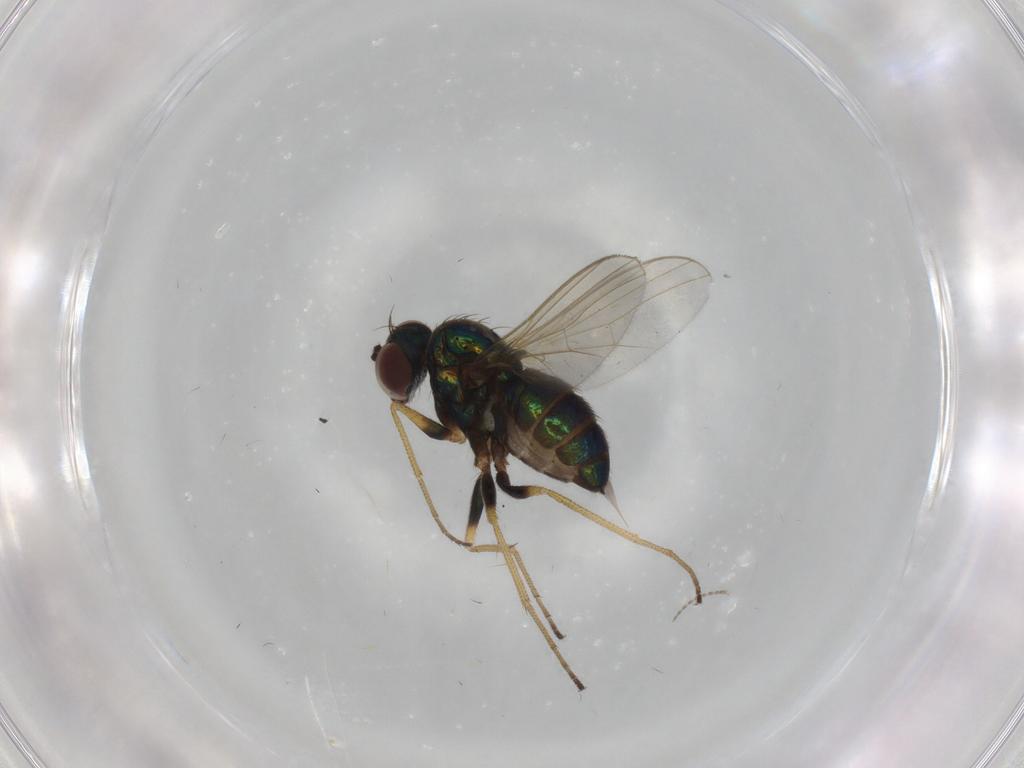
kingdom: Animalia
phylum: Arthropoda
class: Insecta
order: Diptera
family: Dolichopodidae
